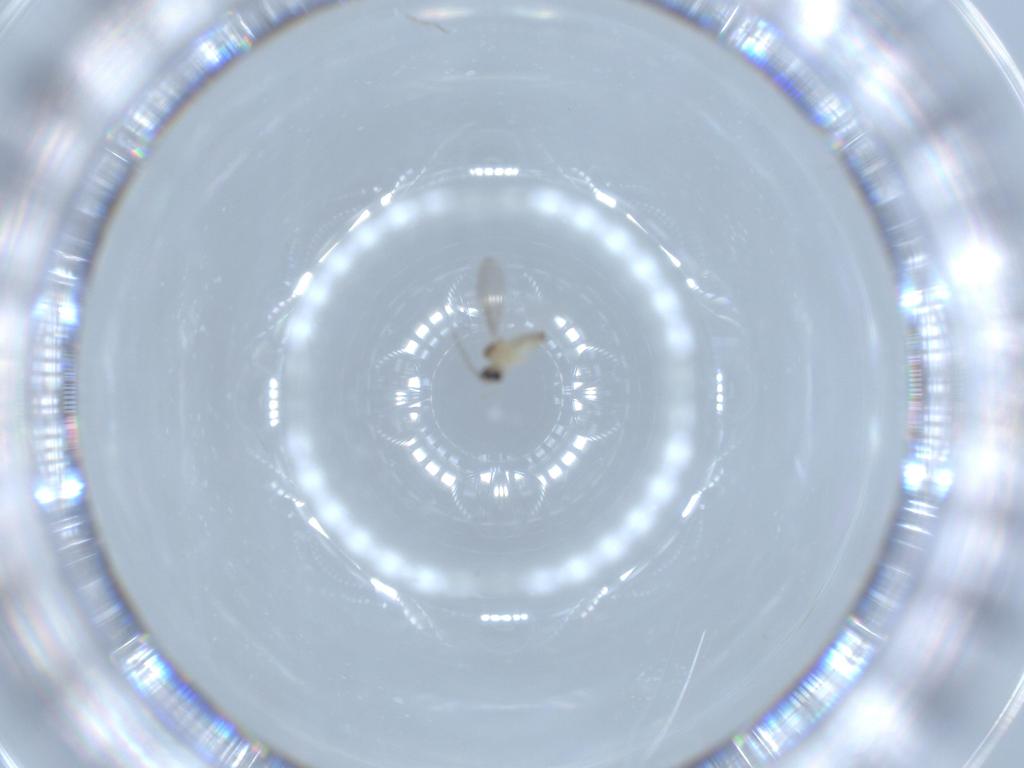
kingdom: Animalia
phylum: Arthropoda
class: Insecta
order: Diptera
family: Cecidomyiidae
